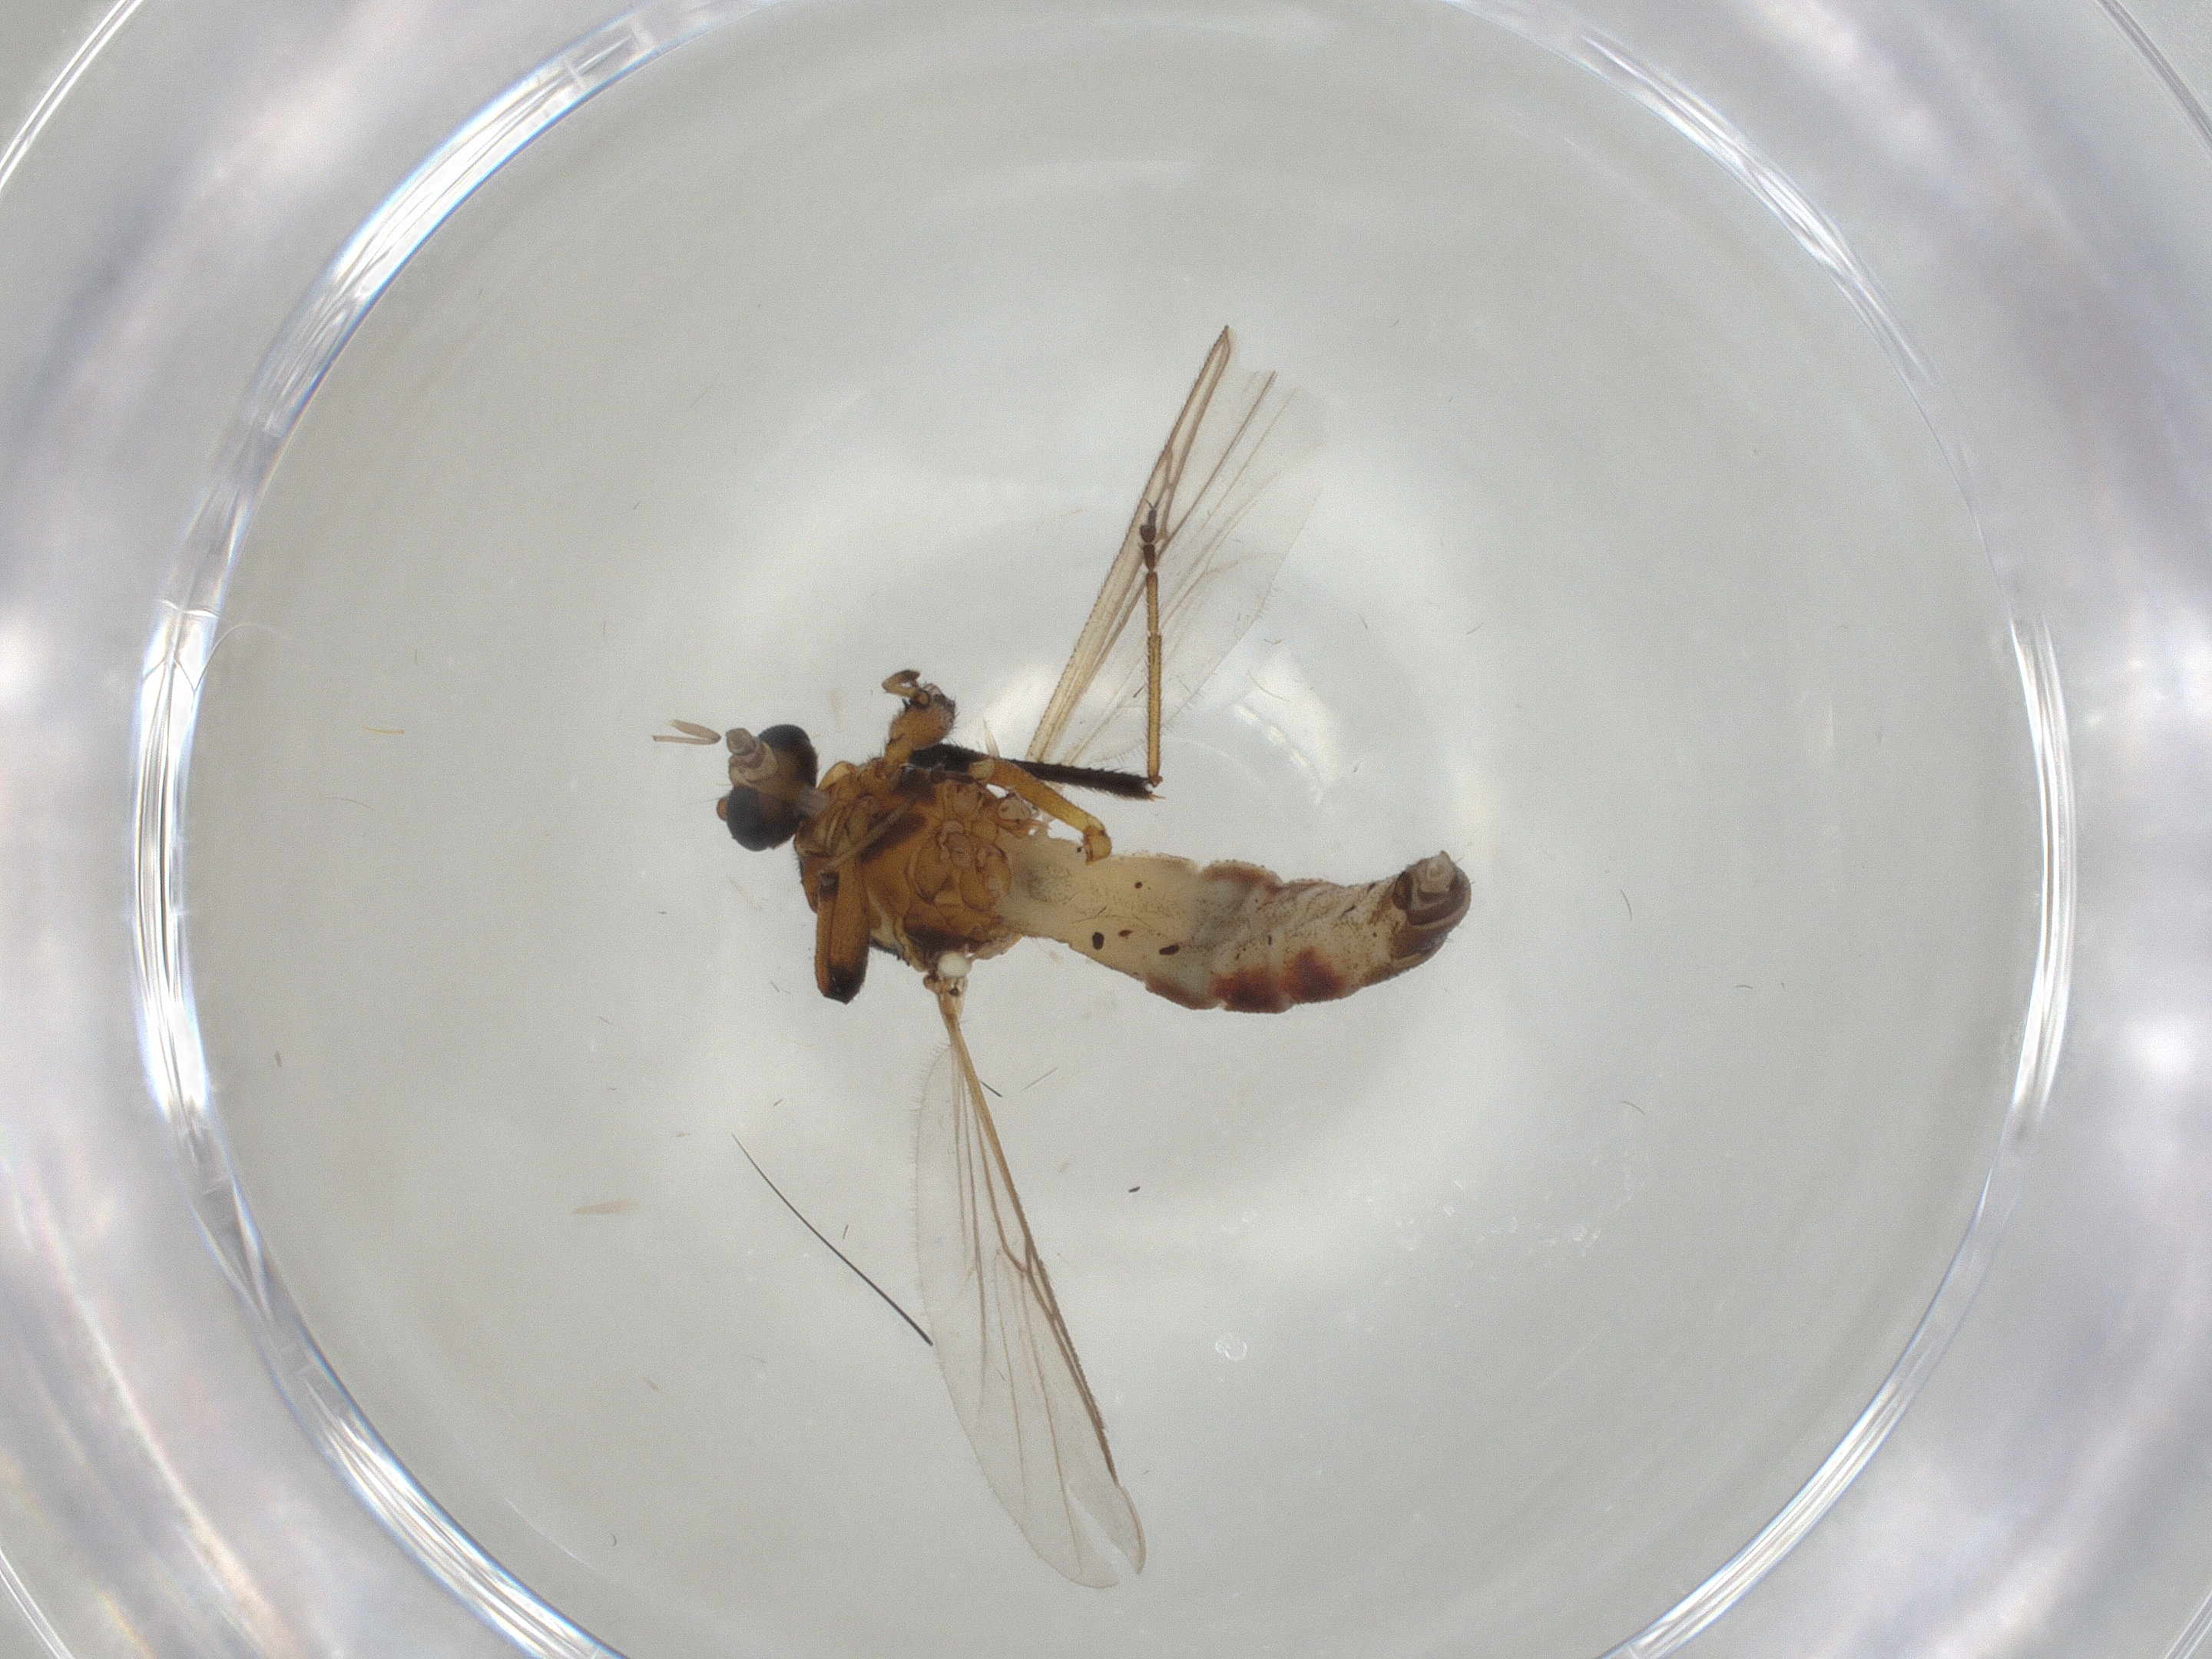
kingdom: Animalia
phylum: Arthropoda
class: Insecta
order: Diptera
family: Ceratopogonidae
